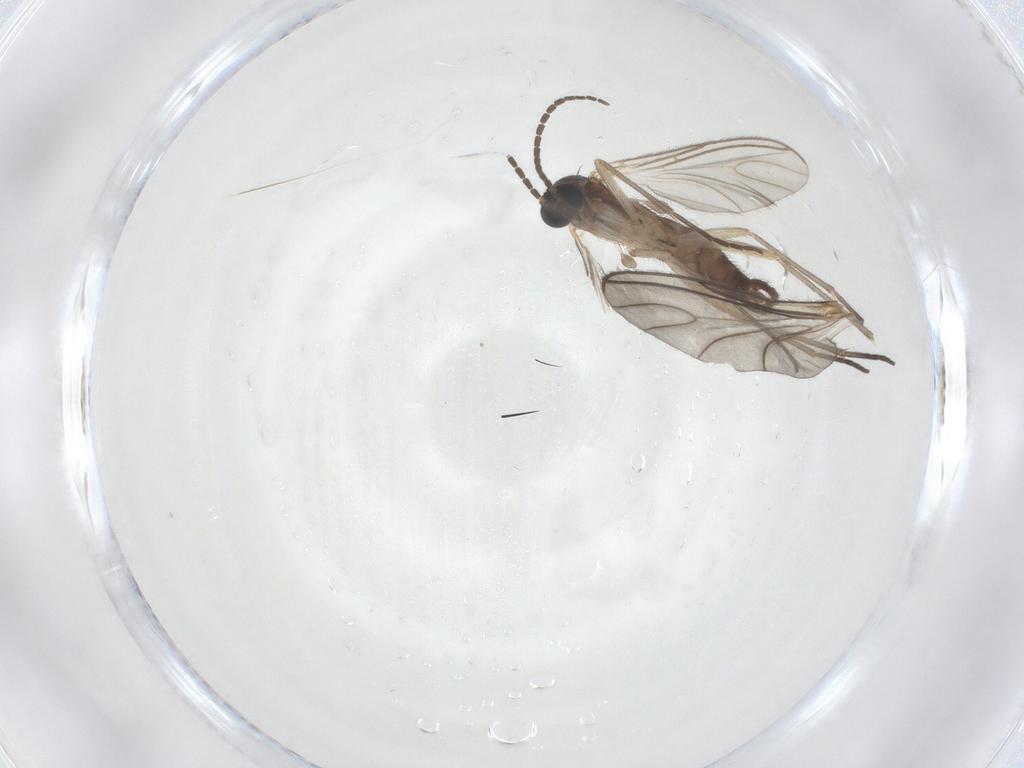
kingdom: Animalia
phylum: Arthropoda
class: Insecta
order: Diptera
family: Sciaridae
